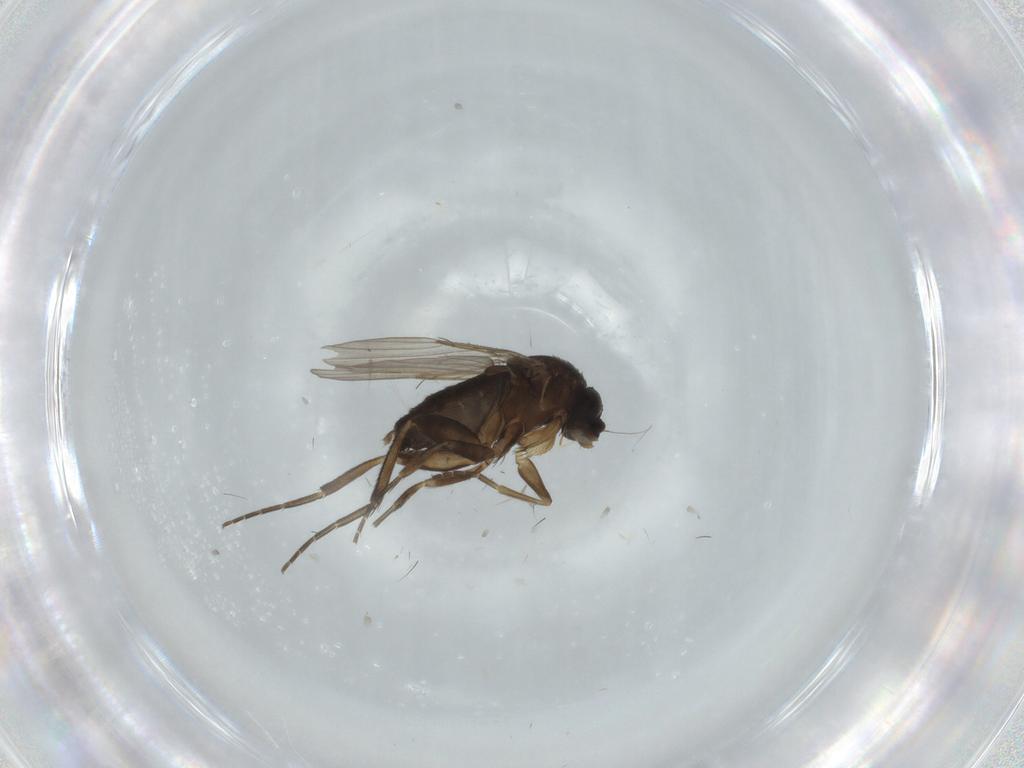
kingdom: Animalia
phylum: Arthropoda
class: Insecta
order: Diptera
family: Phoridae
